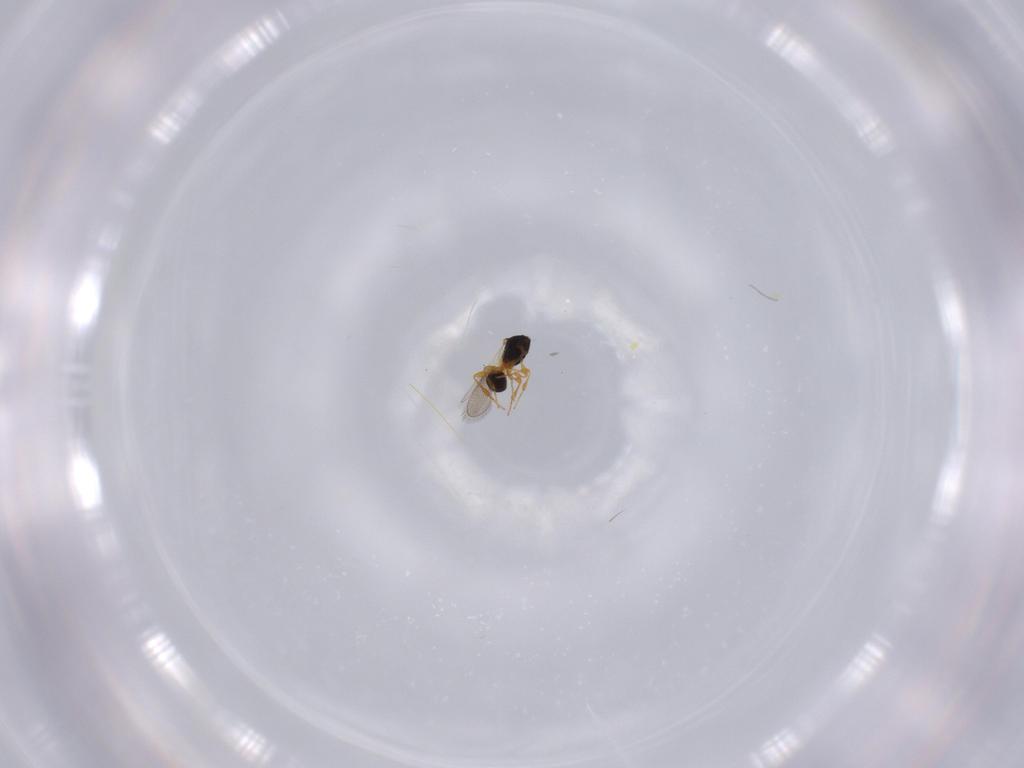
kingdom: Animalia
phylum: Arthropoda
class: Insecta
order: Hymenoptera
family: Platygastridae
